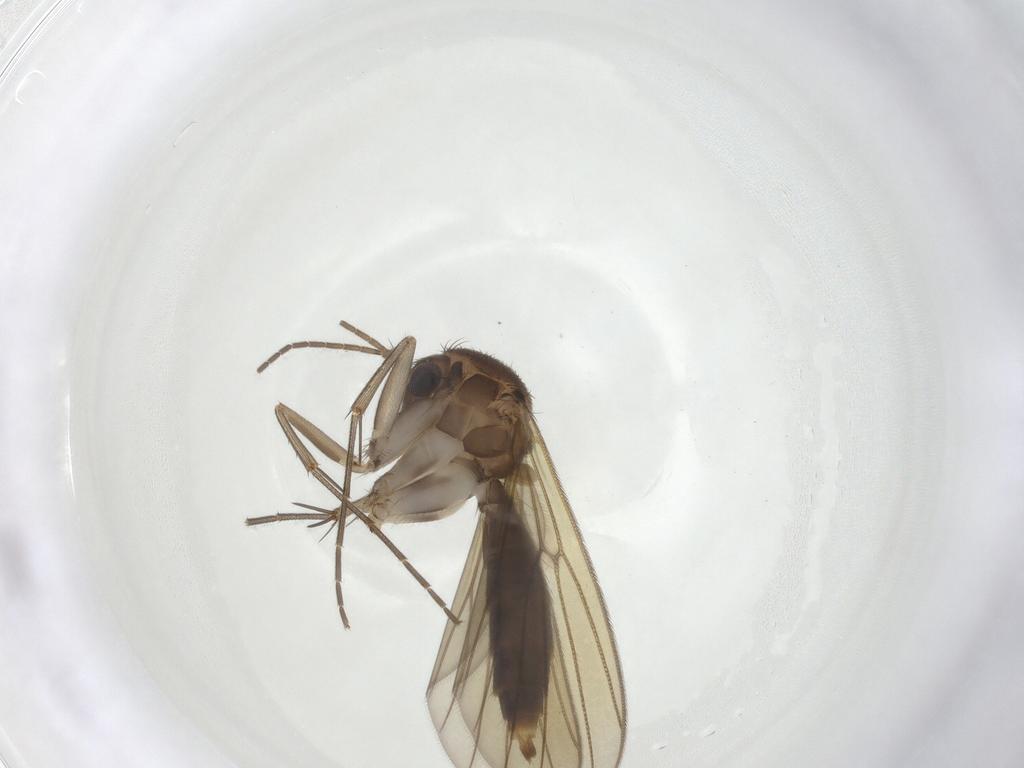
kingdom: Animalia
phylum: Arthropoda
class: Insecta
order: Diptera
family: Mycetophilidae
